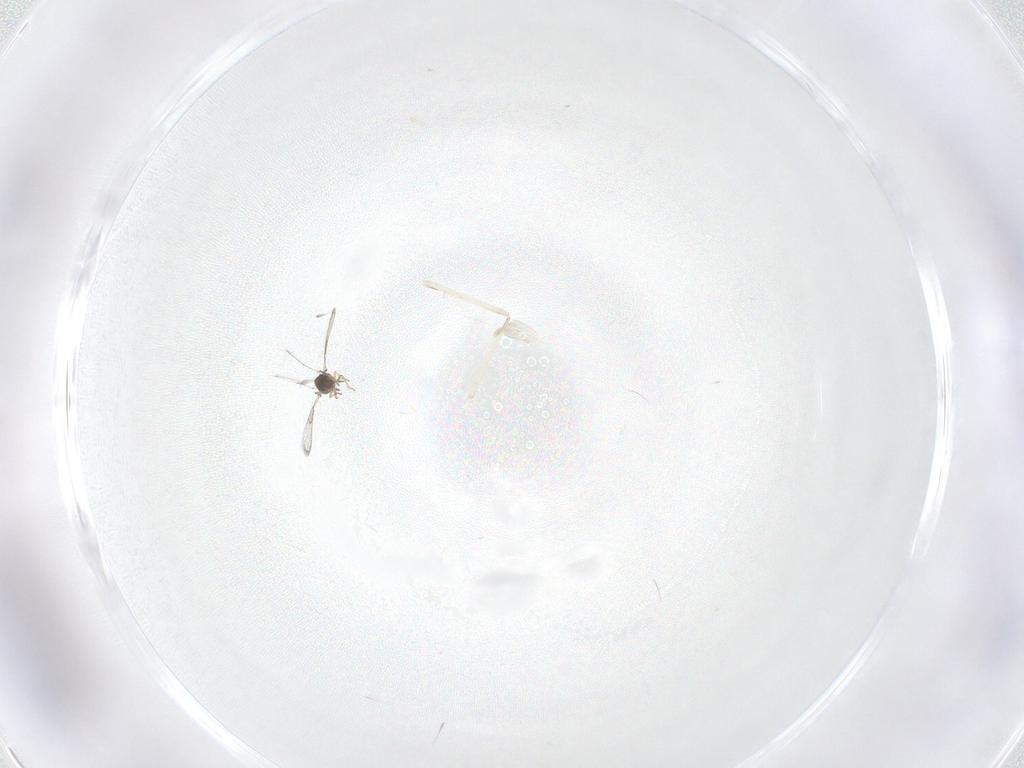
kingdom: Animalia
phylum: Arthropoda
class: Insecta
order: Diptera
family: Cecidomyiidae
